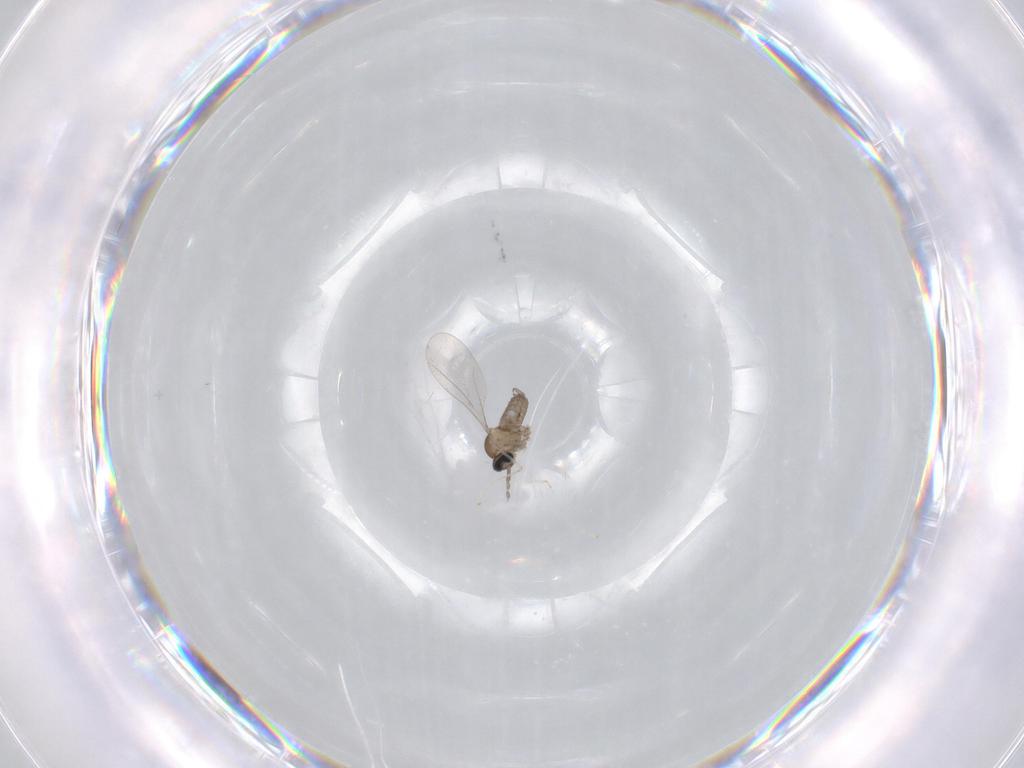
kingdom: Animalia
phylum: Arthropoda
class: Insecta
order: Diptera
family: Cecidomyiidae
